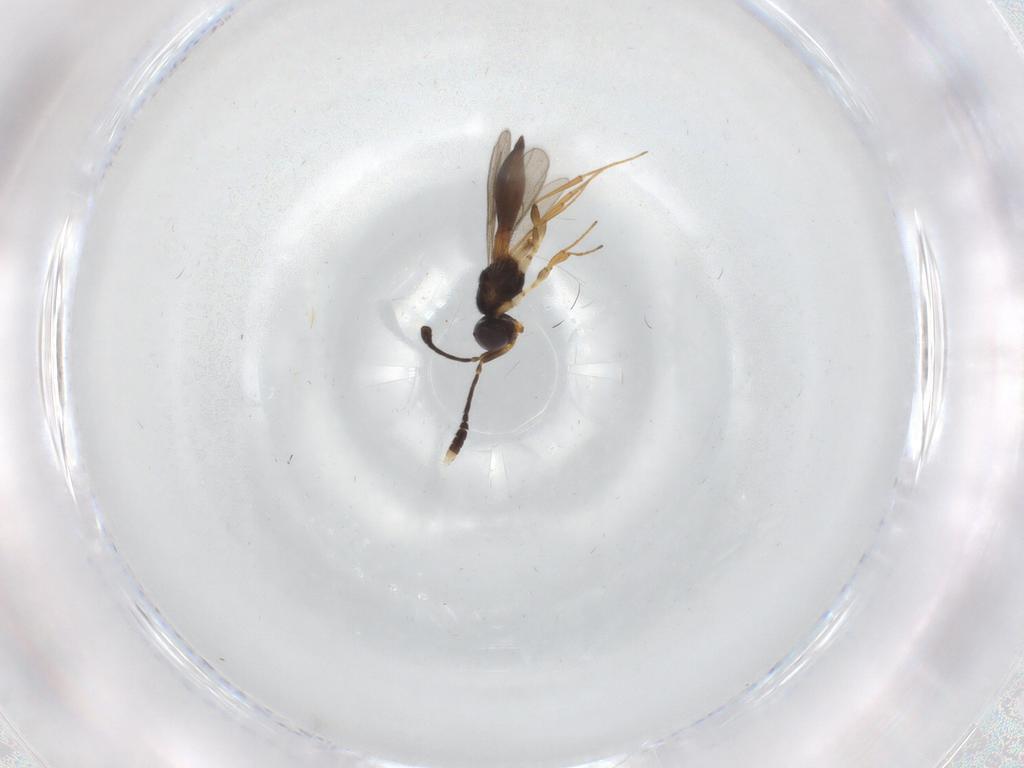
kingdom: Animalia
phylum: Arthropoda
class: Insecta
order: Hymenoptera
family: Scelionidae
